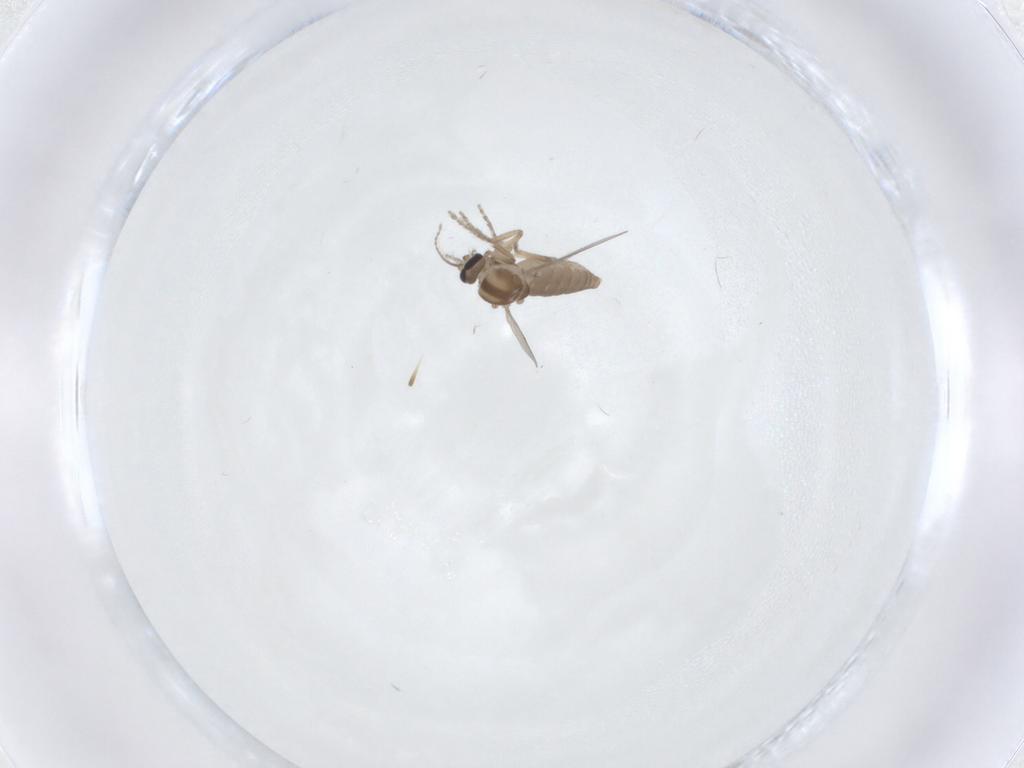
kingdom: Animalia
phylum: Arthropoda
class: Insecta
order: Diptera
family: Ceratopogonidae
